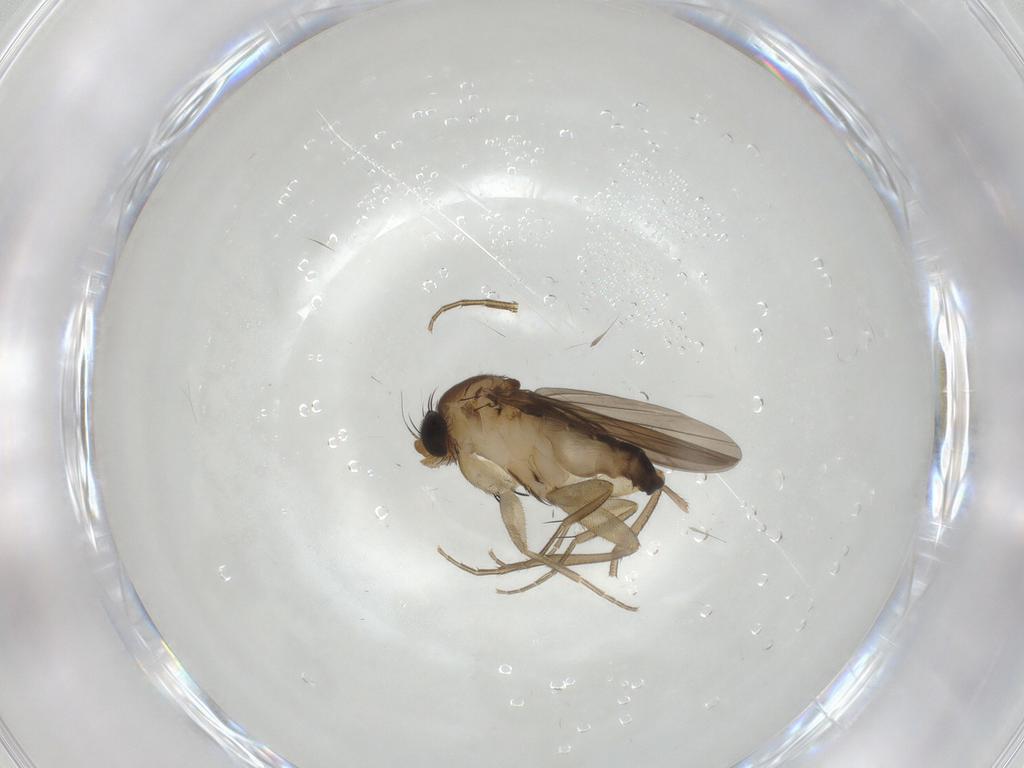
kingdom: Animalia
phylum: Arthropoda
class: Insecta
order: Diptera
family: Phoridae
